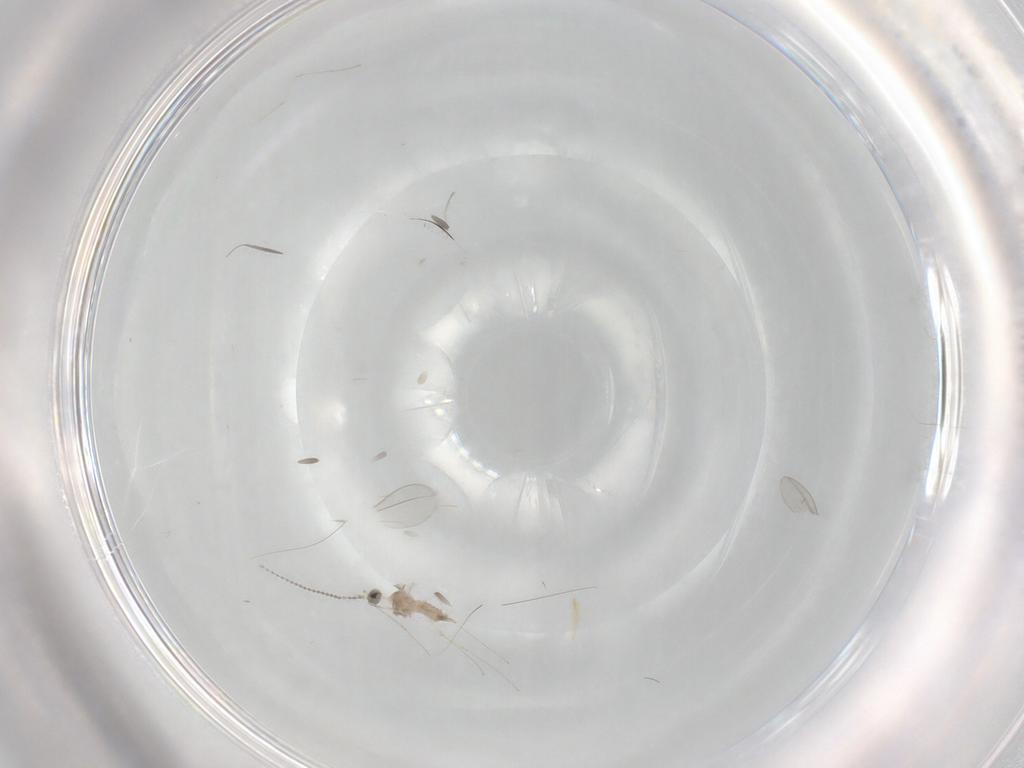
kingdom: Animalia
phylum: Arthropoda
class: Insecta
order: Diptera
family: Cecidomyiidae
